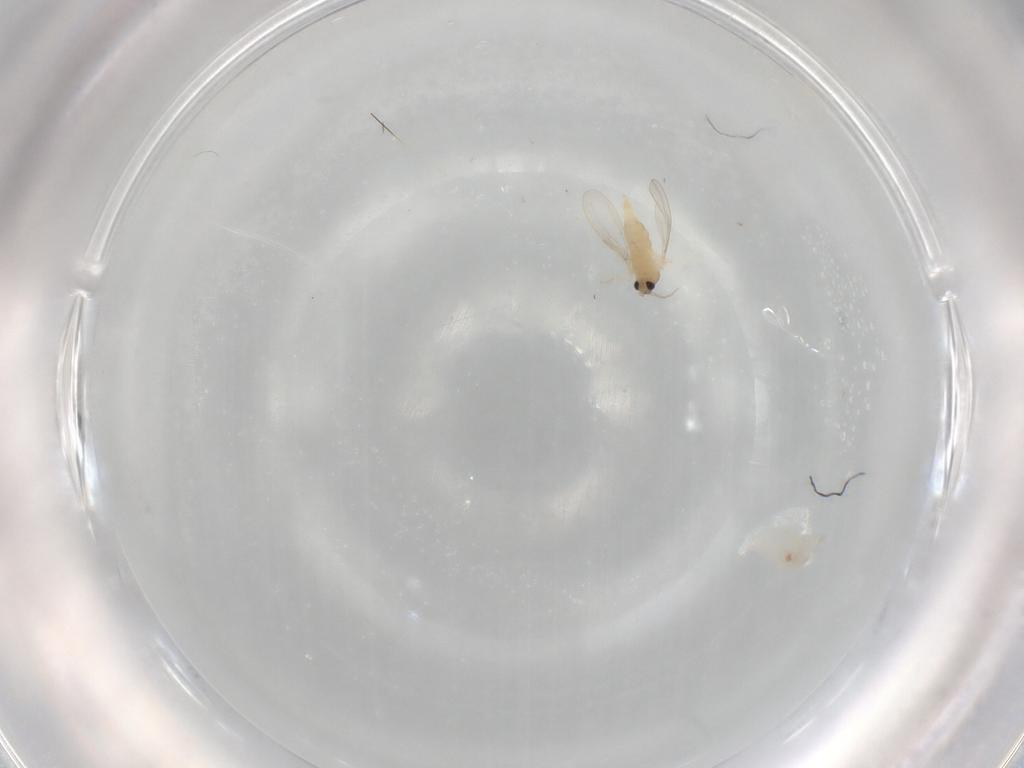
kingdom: Animalia
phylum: Arthropoda
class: Insecta
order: Diptera
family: Cecidomyiidae
